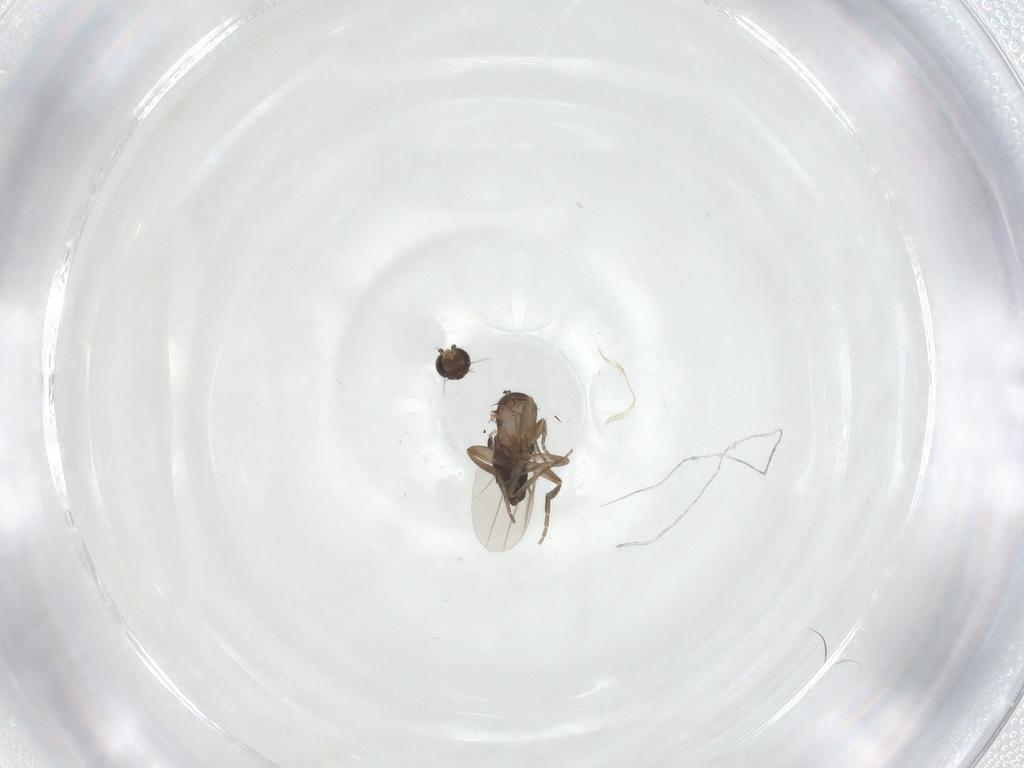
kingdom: Animalia
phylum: Arthropoda
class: Insecta
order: Diptera
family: Phoridae
